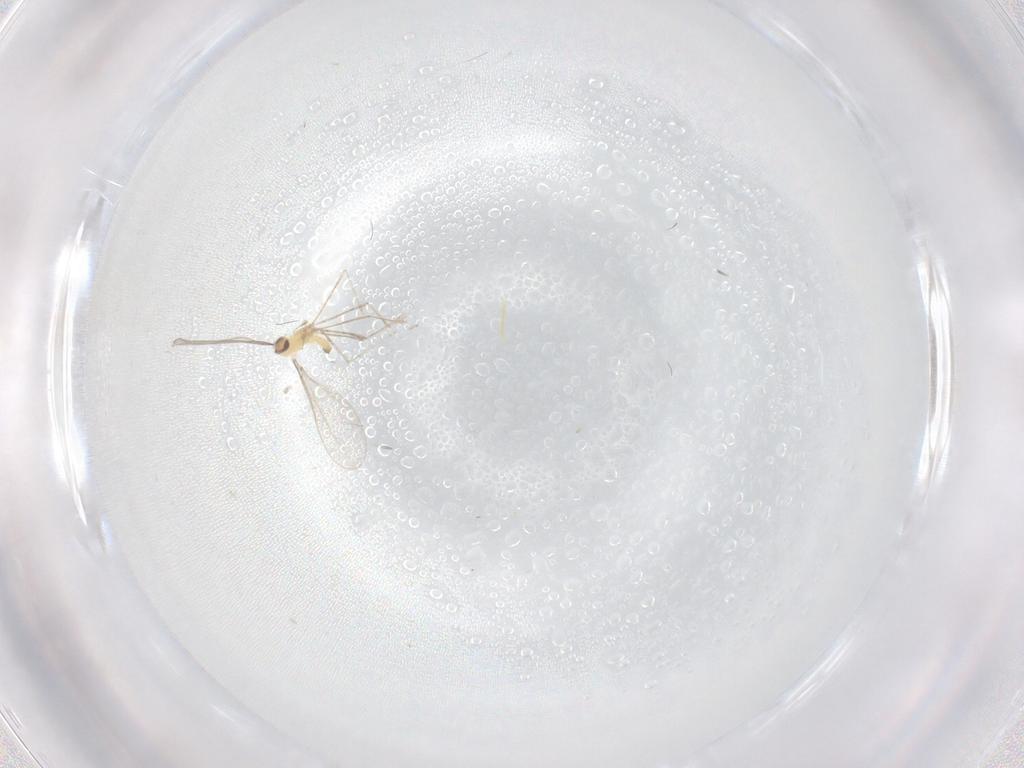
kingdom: Animalia
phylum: Arthropoda
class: Insecta
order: Diptera
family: Cecidomyiidae
